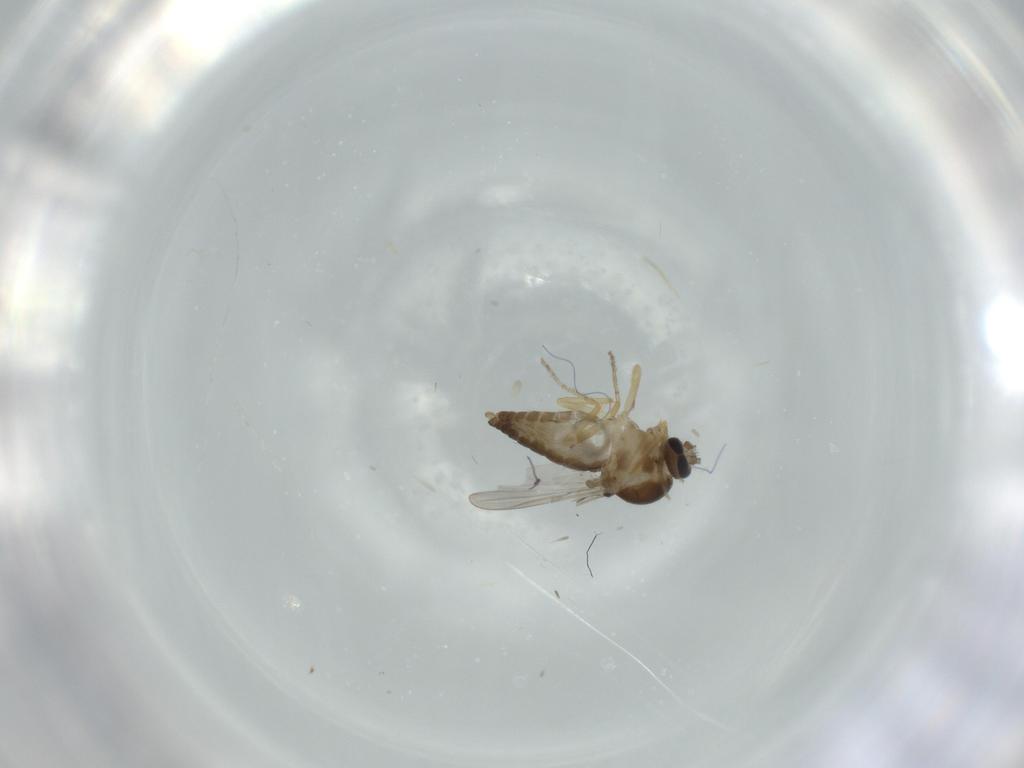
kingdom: Animalia
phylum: Arthropoda
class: Insecta
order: Diptera
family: Ceratopogonidae
